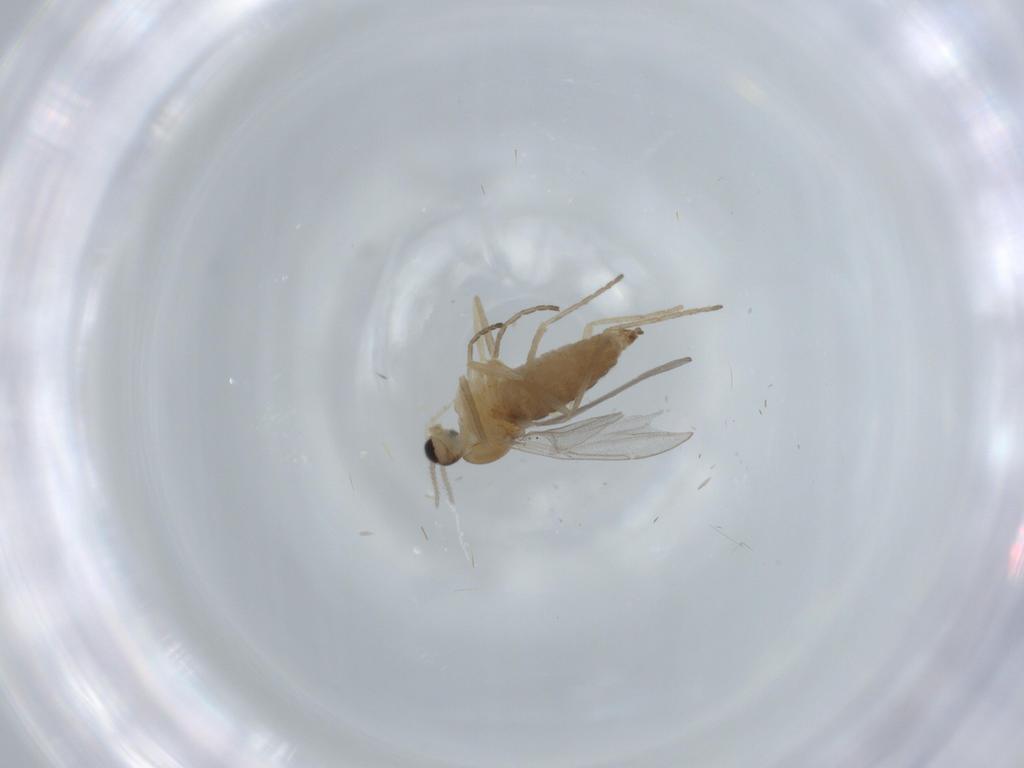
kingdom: Animalia
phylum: Arthropoda
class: Insecta
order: Diptera
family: Cecidomyiidae
